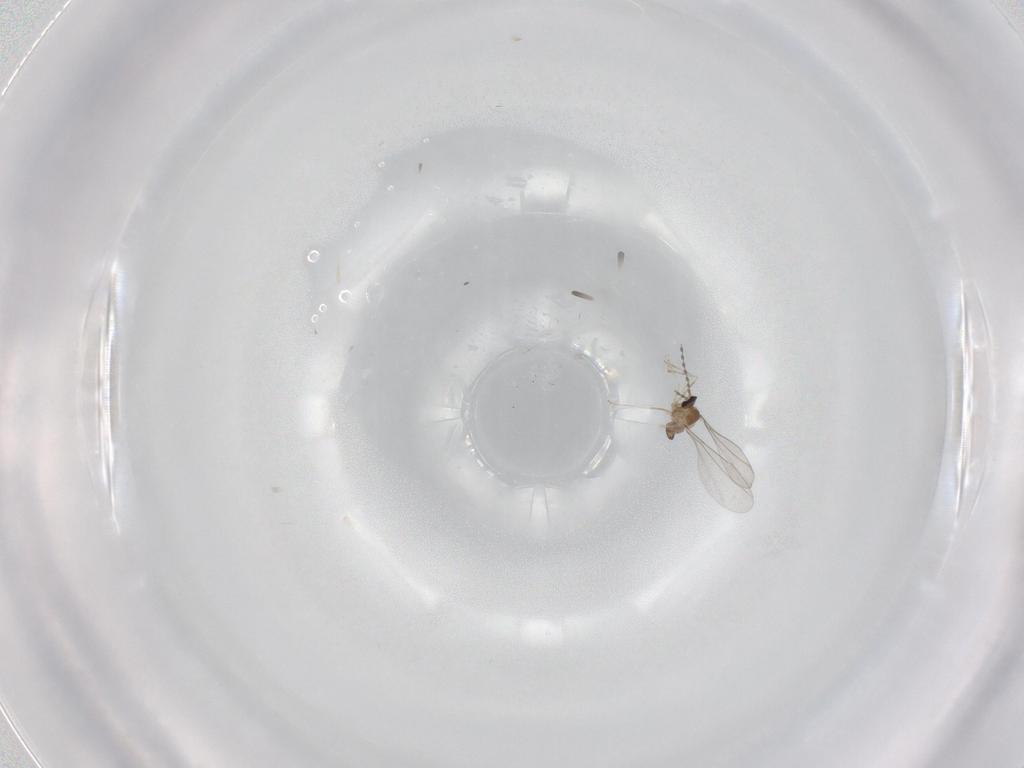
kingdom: Animalia
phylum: Arthropoda
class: Insecta
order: Diptera
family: Cecidomyiidae
